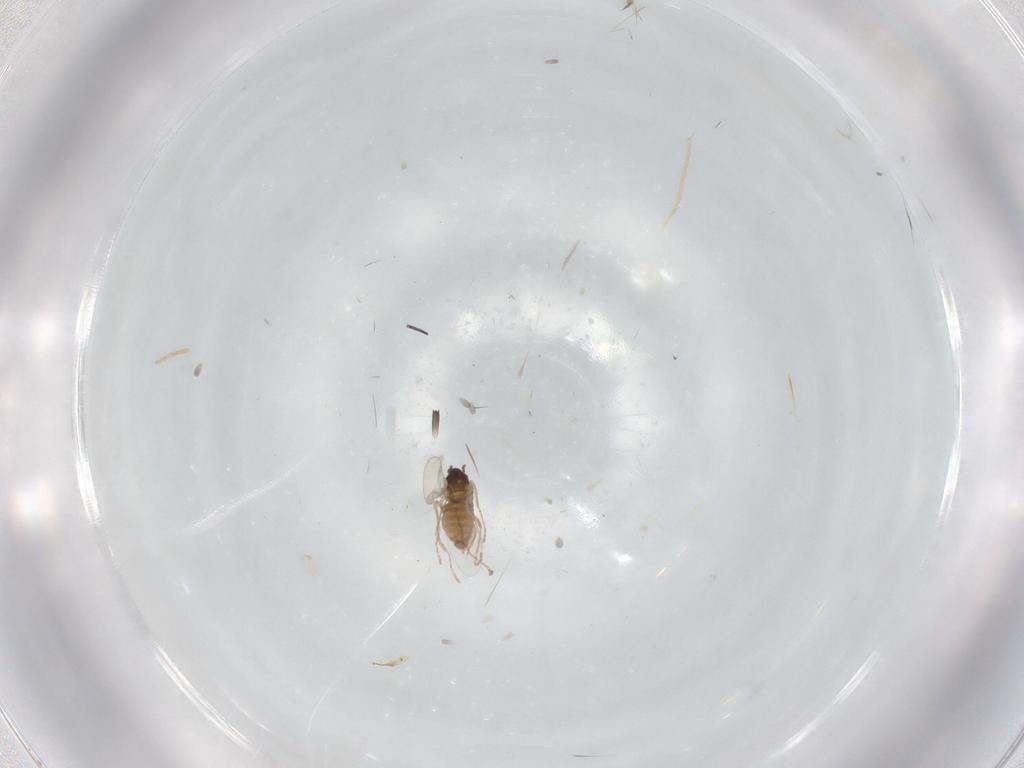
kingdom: Animalia
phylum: Arthropoda
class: Insecta
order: Diptera
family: Cecidomyiidae
